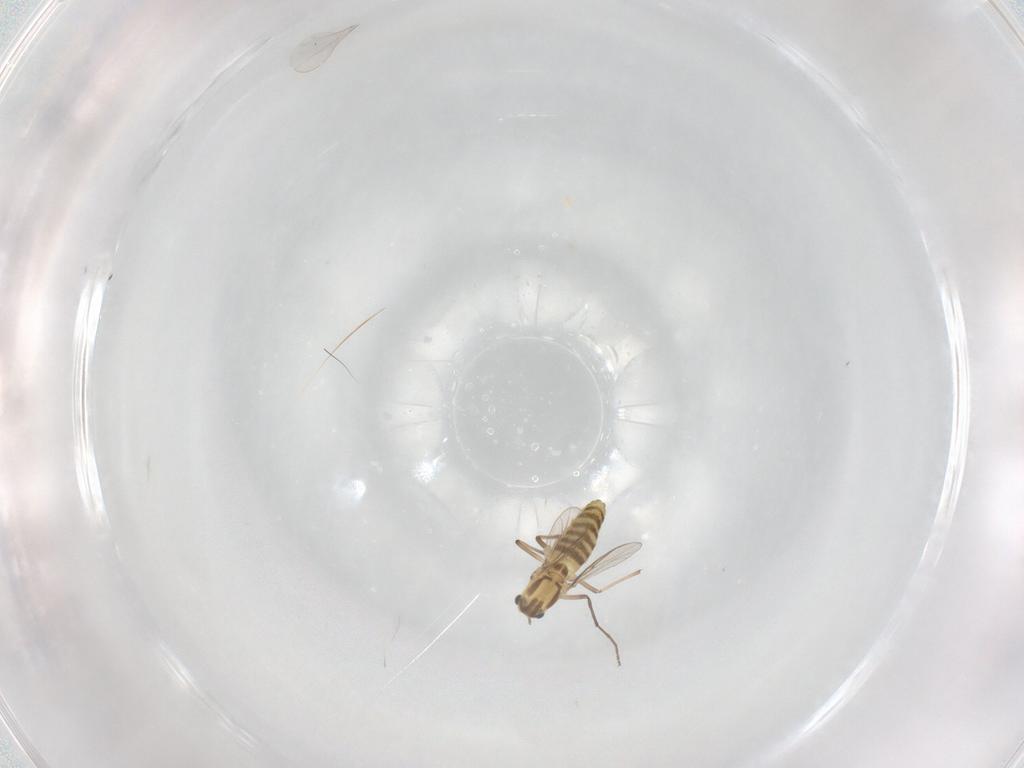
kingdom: Animalia
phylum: Arthropoda
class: Insecta
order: Diptera
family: Chironomidae
